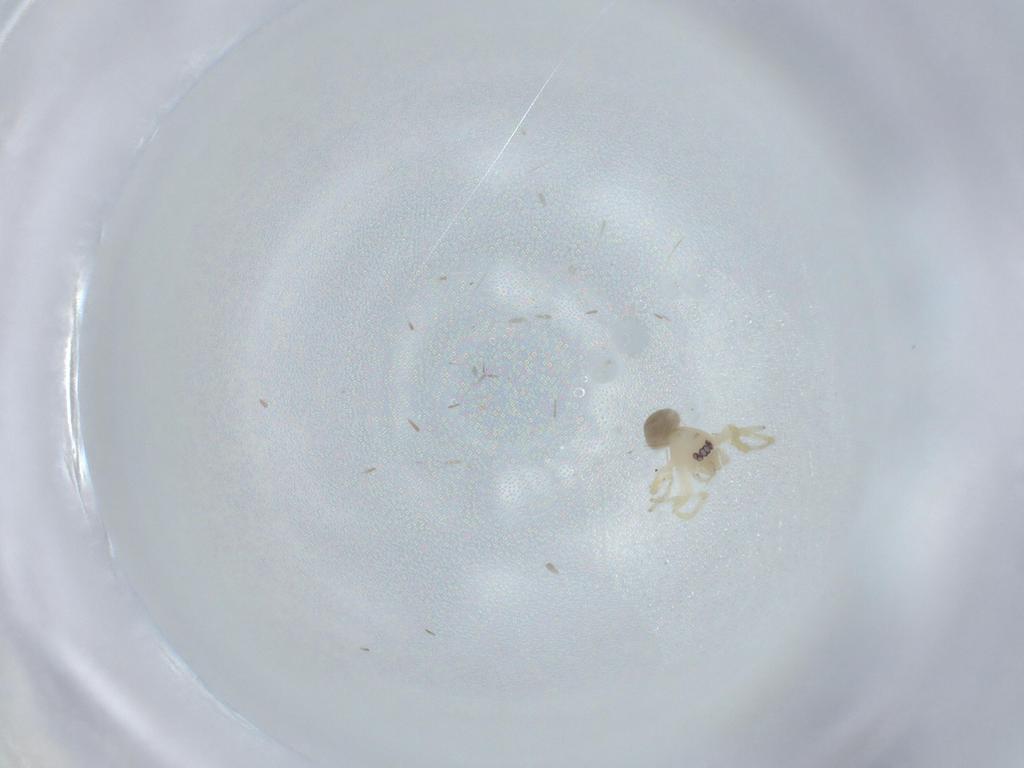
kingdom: Animalia
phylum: Arthropoda
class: Arachnida
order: Araneae
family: Oonopidae
